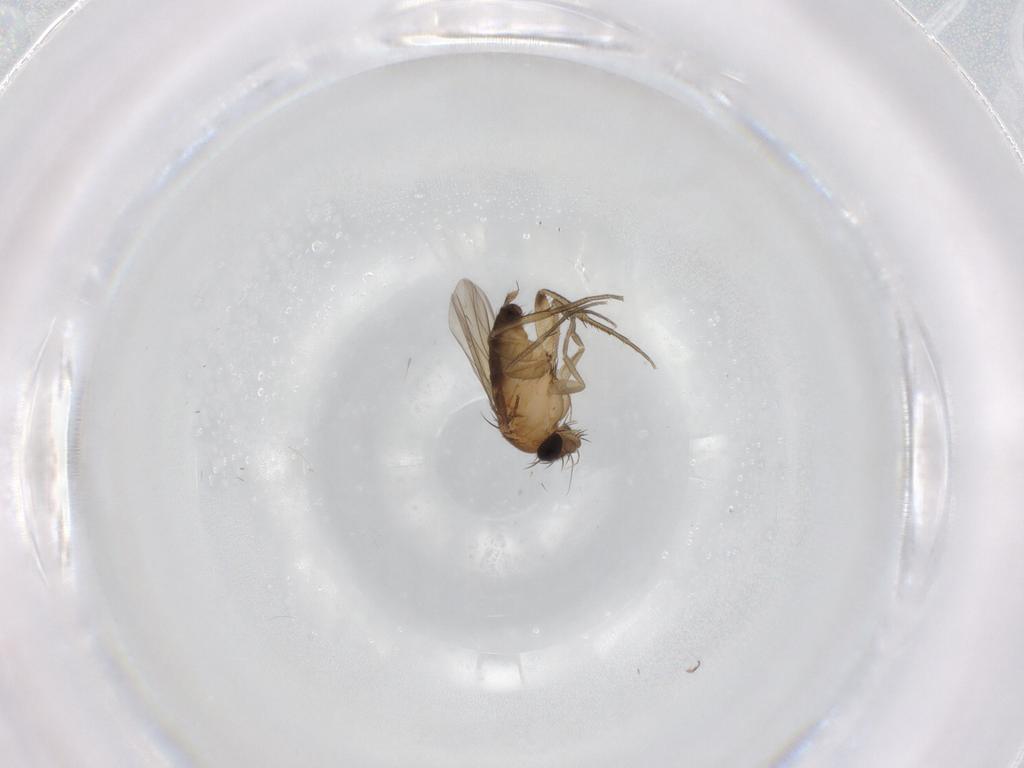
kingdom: Animalia
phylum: Arthropoda
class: Insecta
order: Diptera
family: Phoridae
